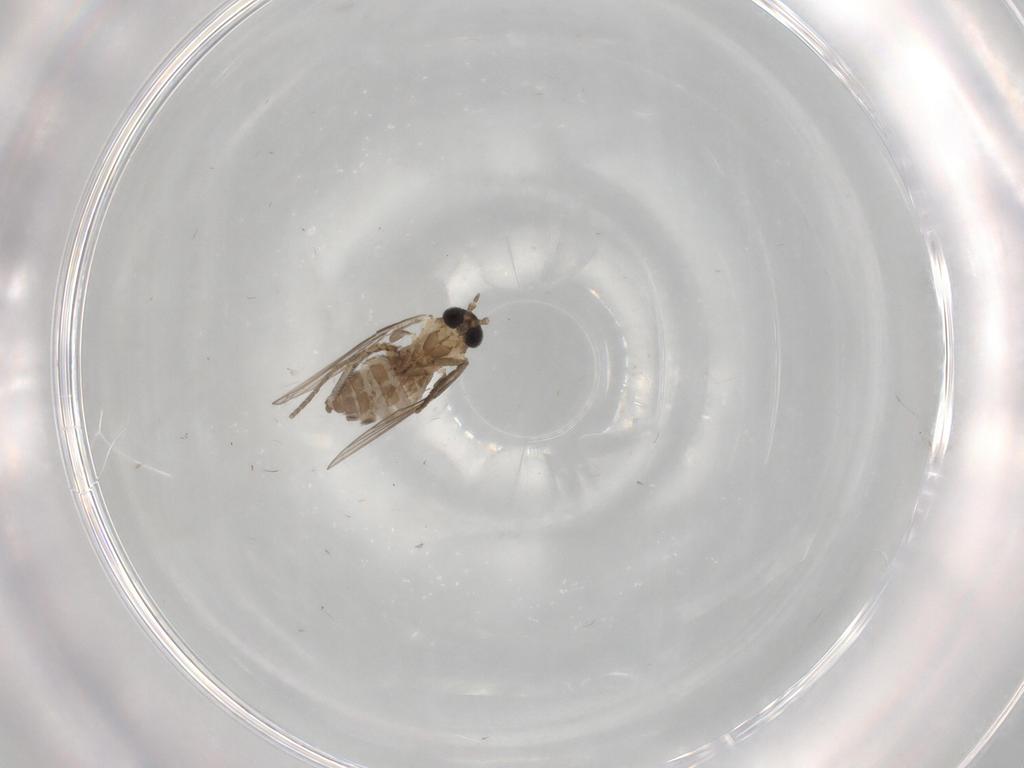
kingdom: Animalia
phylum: Arthropoda
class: Insecta
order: Diptera
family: Psychodidae
